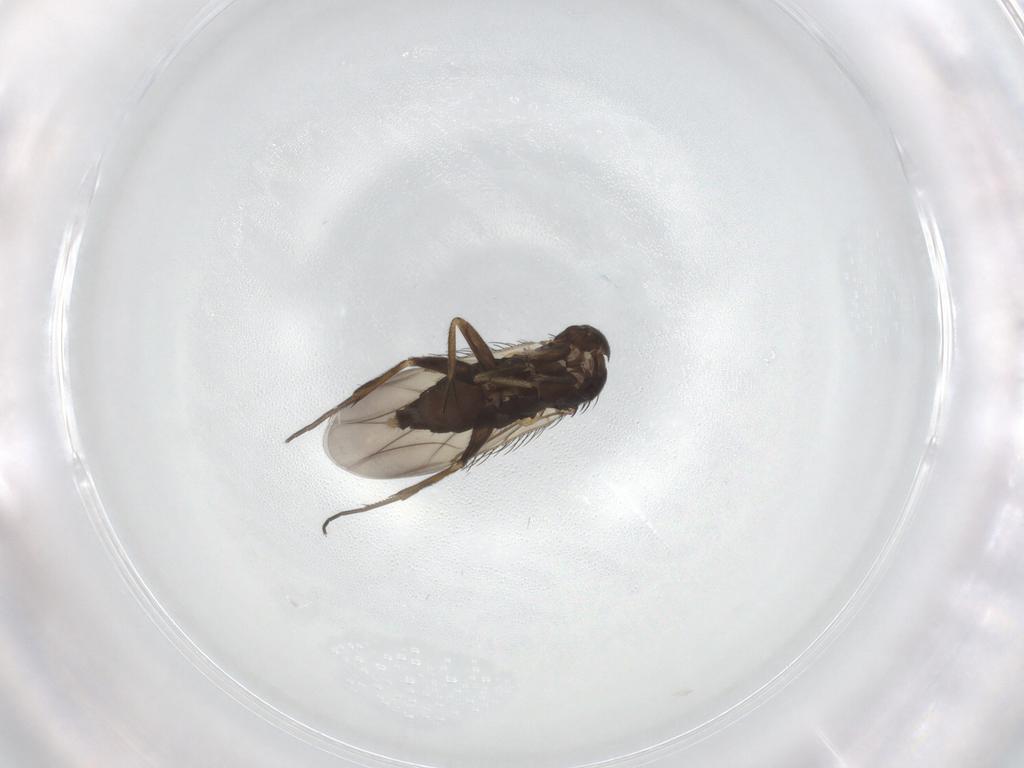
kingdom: Animalia
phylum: Arthropoda
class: Insecta
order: Diptera
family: Phoridae
